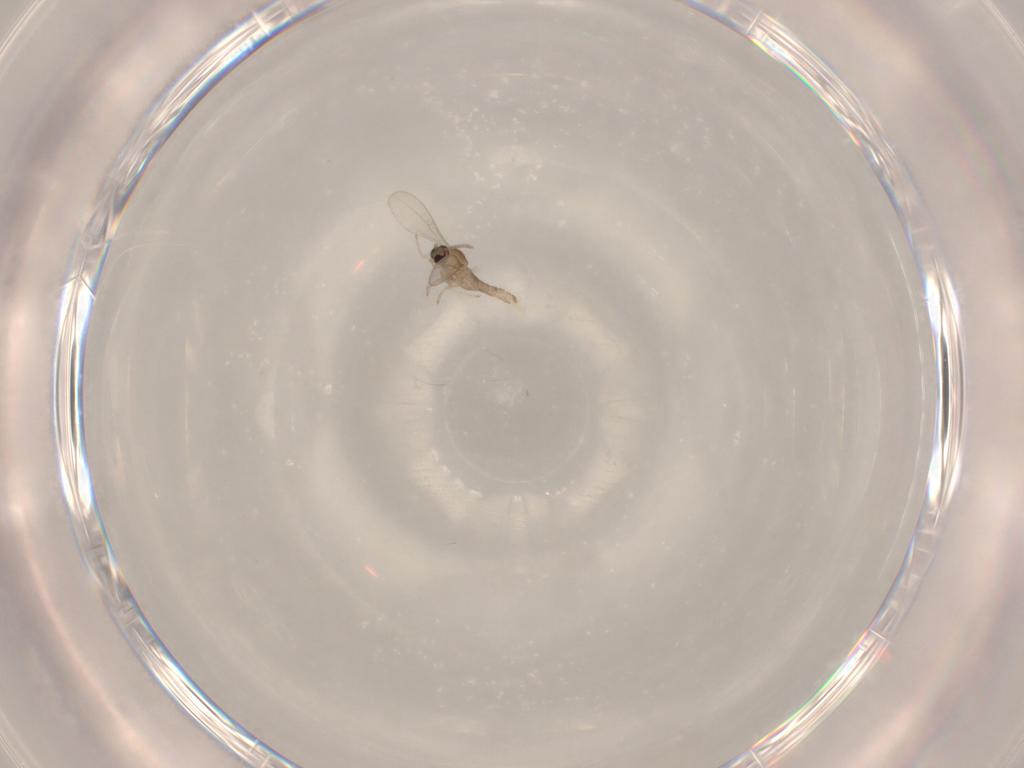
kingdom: Animalia
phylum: Arthropoda
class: Insecta
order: Diptera
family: Cecidomyiidae
